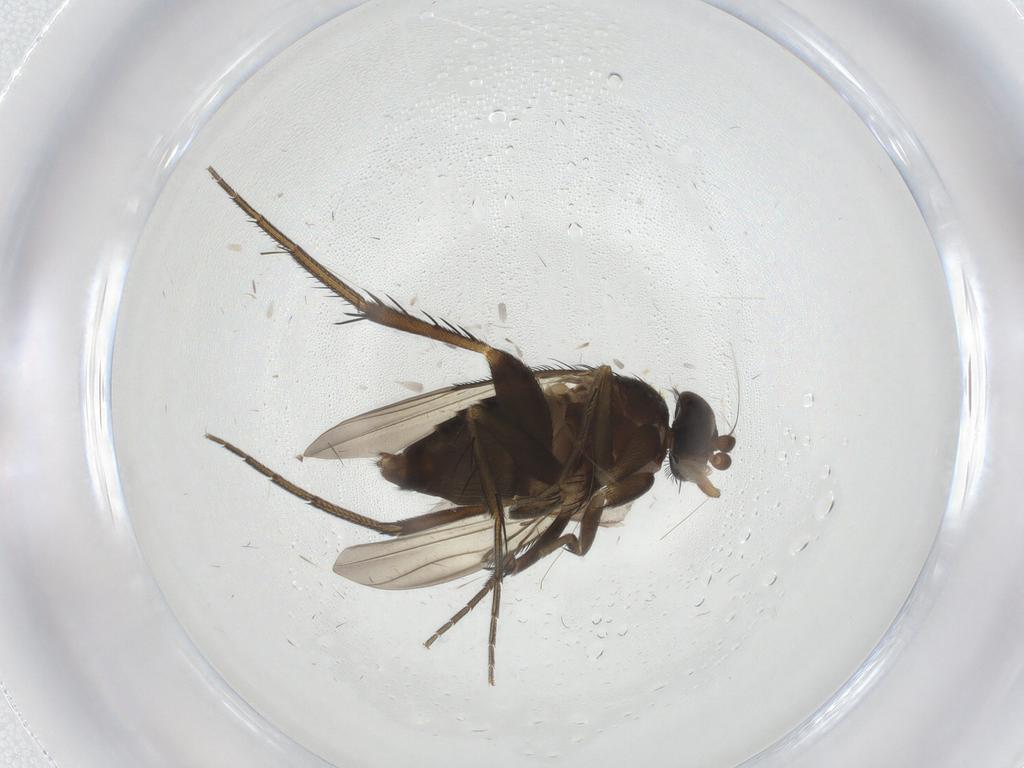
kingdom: Animalia
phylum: Arthropoda
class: Insecta
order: Diptera
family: Phoridae
